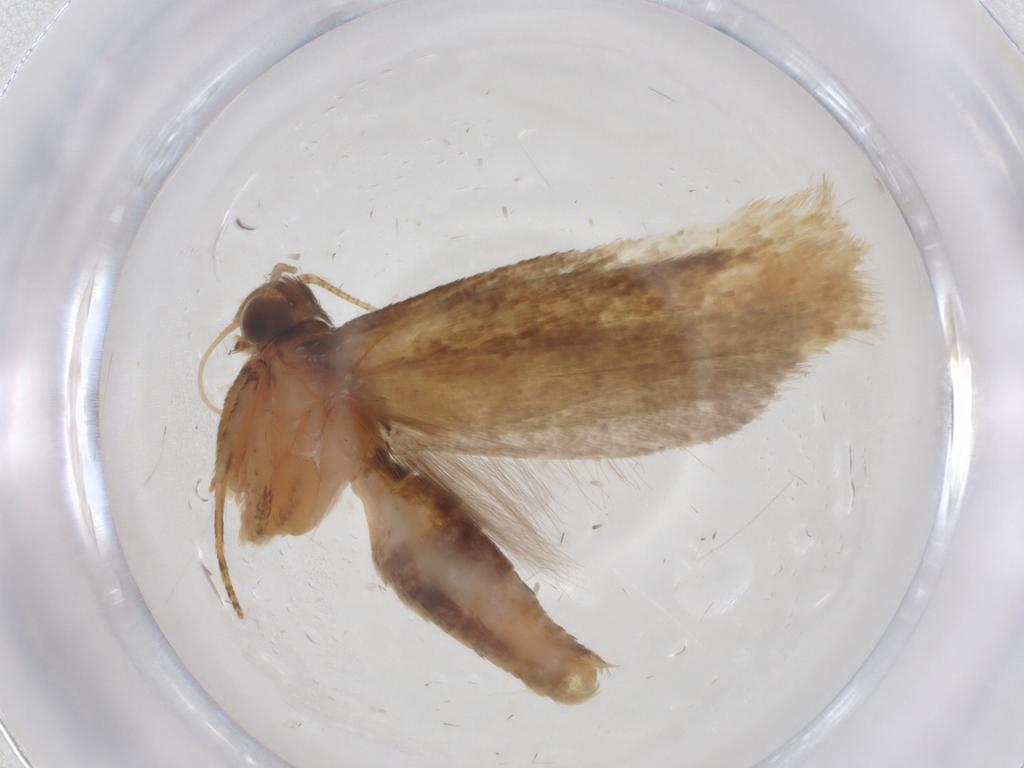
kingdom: Animalia
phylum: Arthropoda
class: Insecta
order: Lepidoptera
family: Gelechiidae
